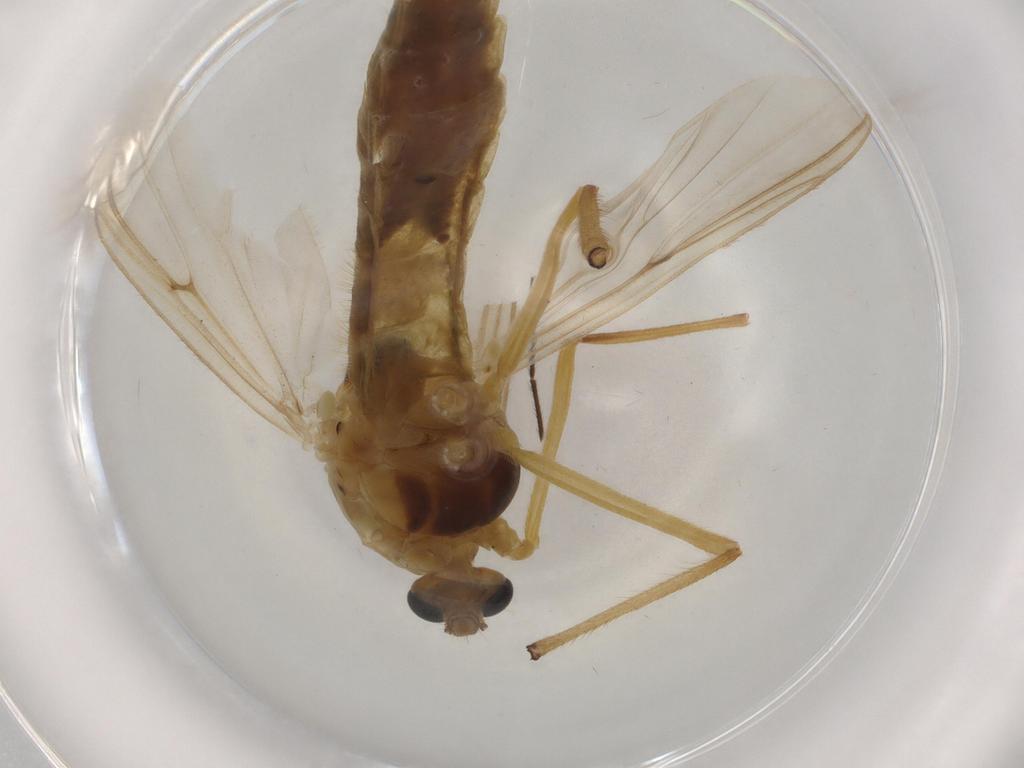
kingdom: Animalia
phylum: Arthropoda
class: Insecta
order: Diptera
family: Chironomidae
